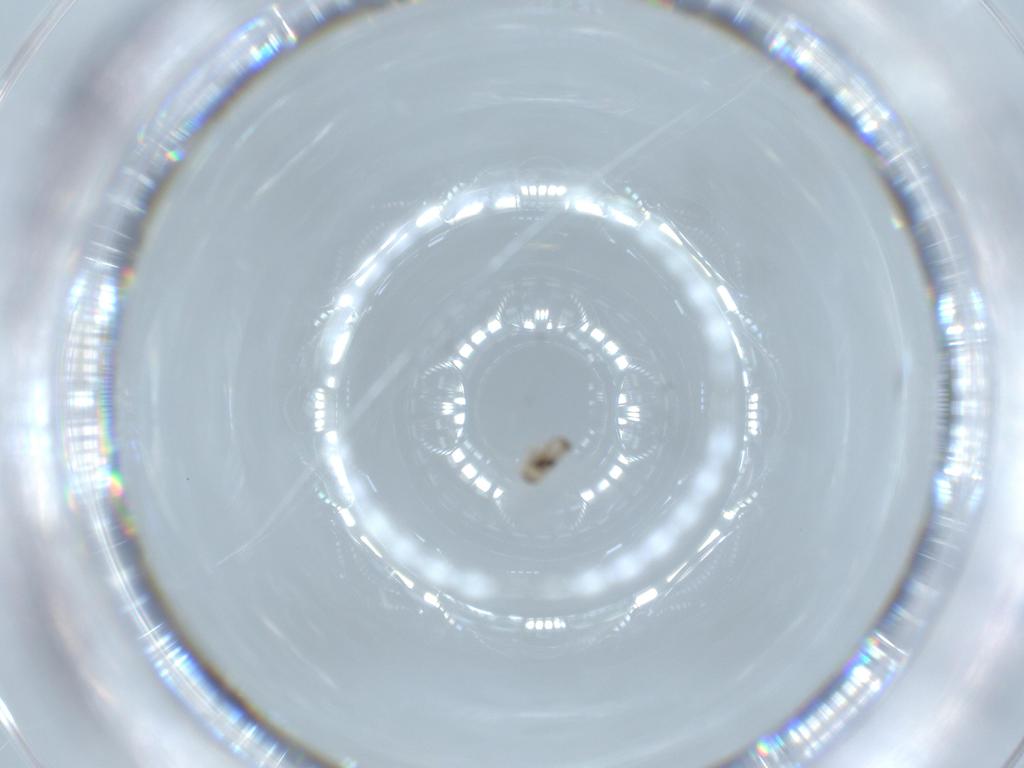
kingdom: Animalia
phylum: Arthropoda
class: Insecta
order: Diptera
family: Cecidomyiidae
